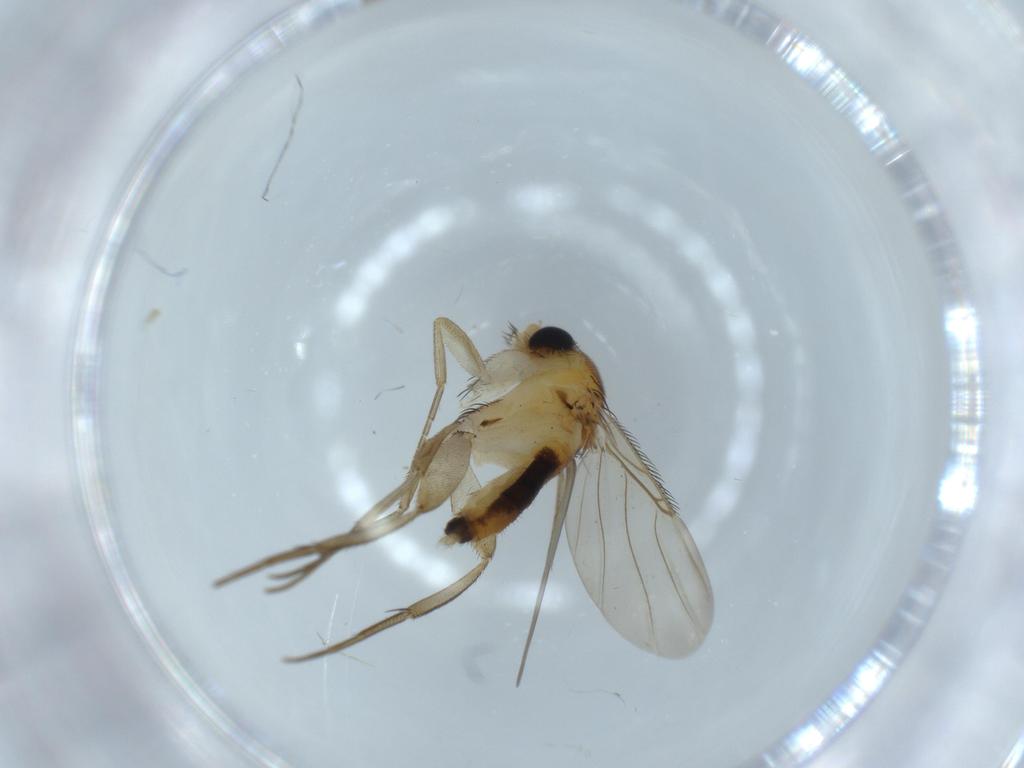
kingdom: Animalia
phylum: Arthropoda
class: Insecta
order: Diptera
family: Phoridae
